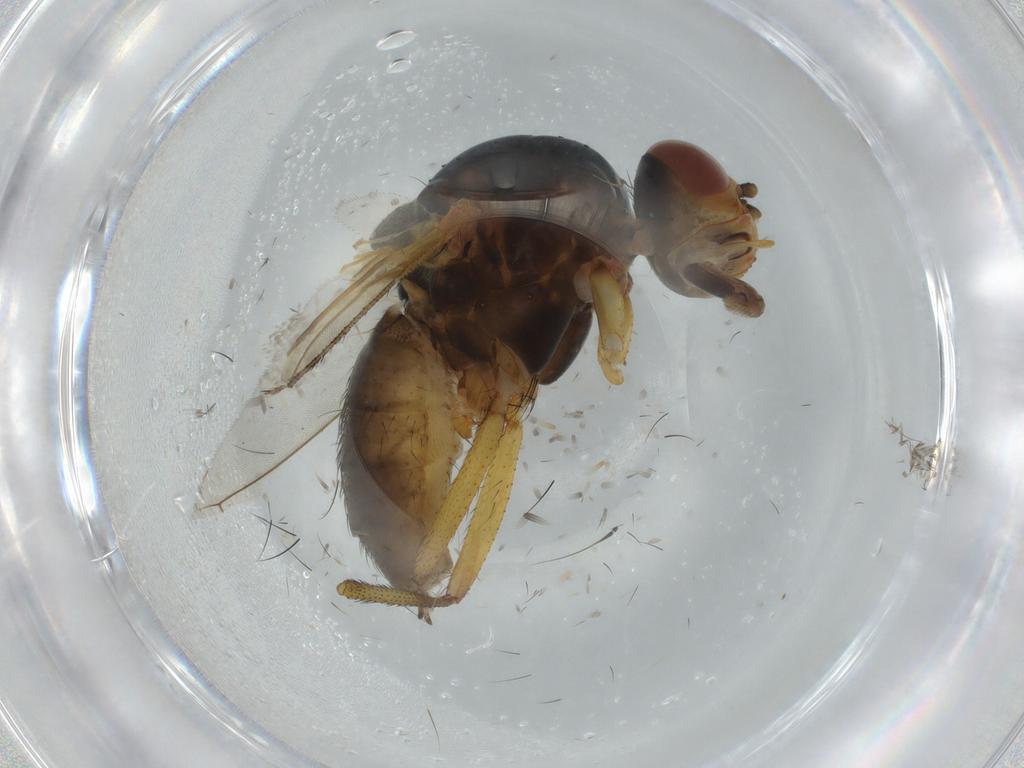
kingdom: Animalia
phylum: Arthropoda
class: Insecta
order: Diptera
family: Anthomyiidae
